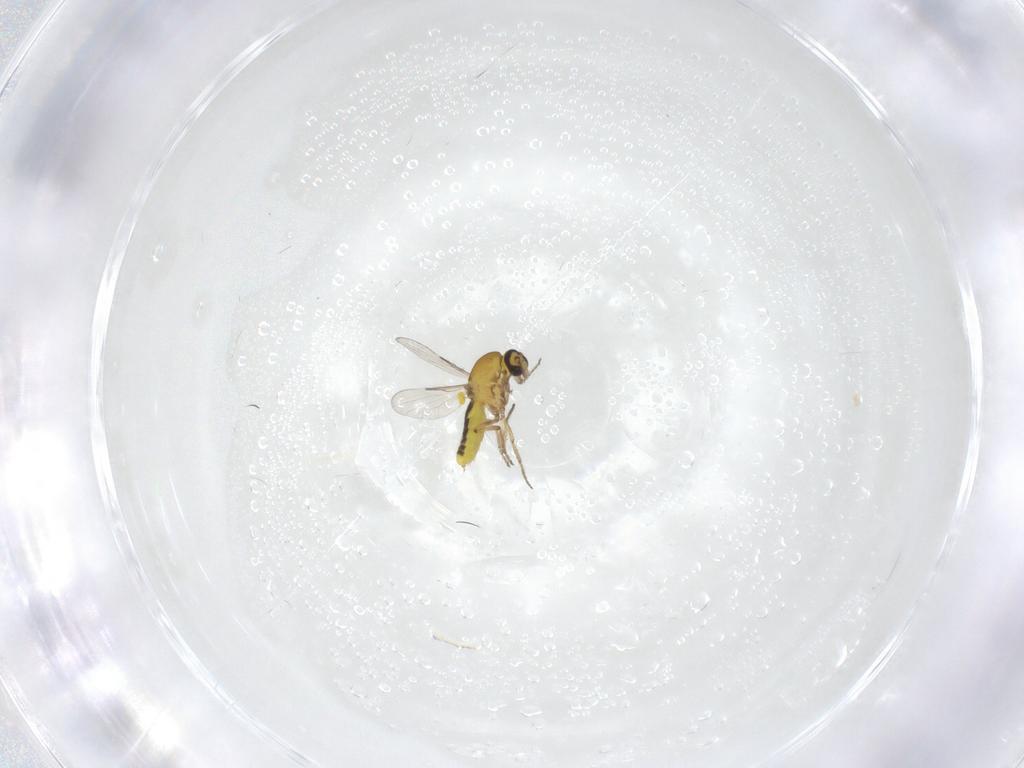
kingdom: Animalia
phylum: Arthropoda
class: Insecta
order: Diptera
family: Ceratopogonidae
